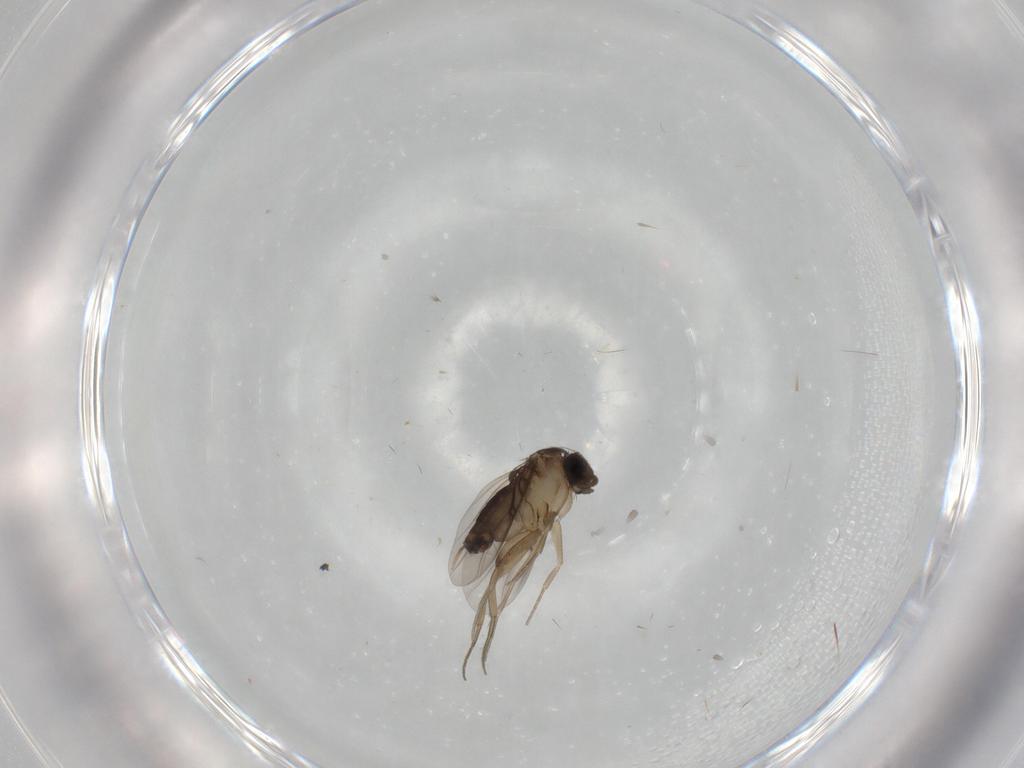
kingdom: Animalia
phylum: Arthropoda
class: Insecta
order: Diptera
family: Phoridae
